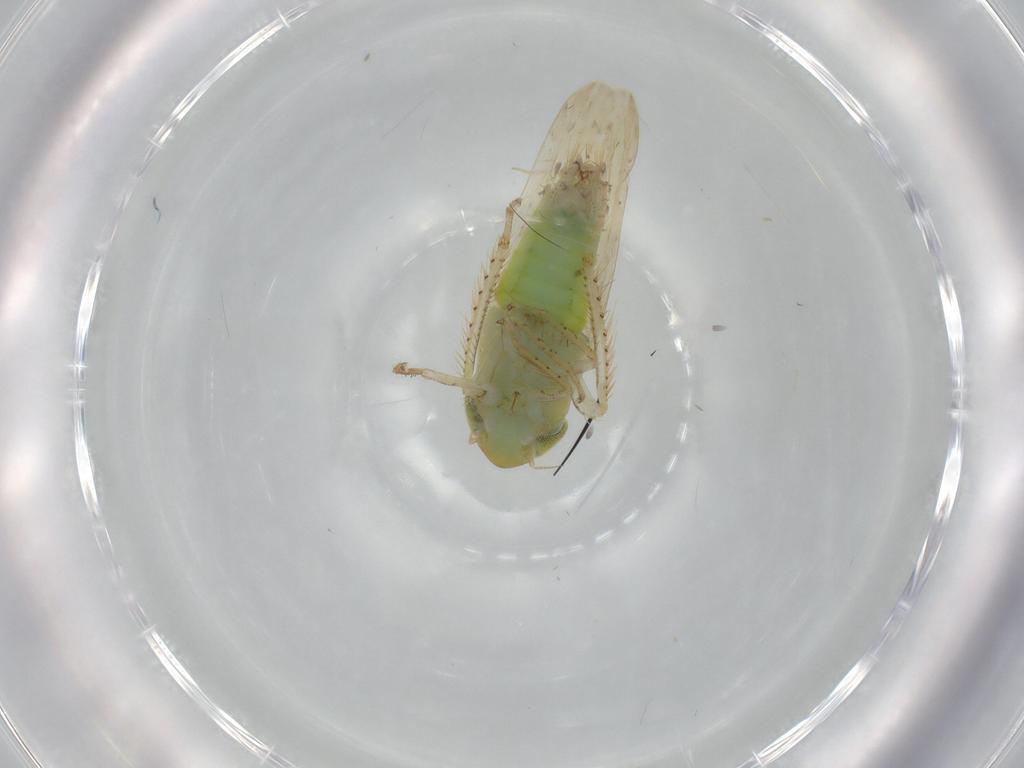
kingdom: Animalia
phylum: Arthropoda
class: Insecta
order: Hemiptera
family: Cicadellidae
